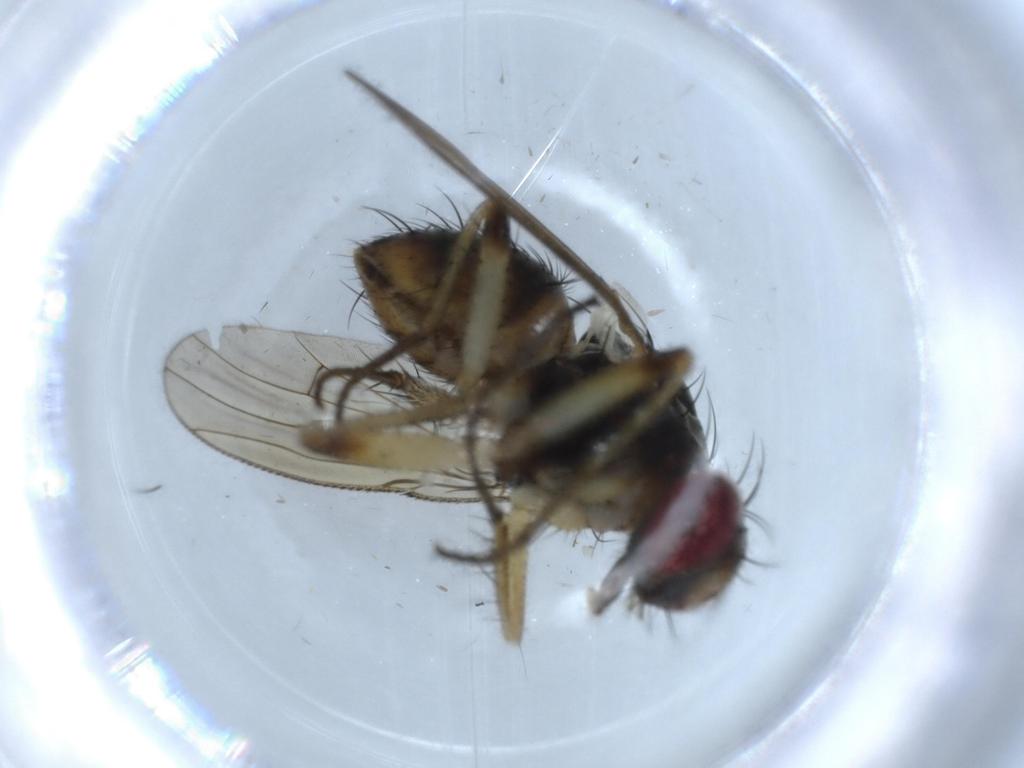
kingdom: Animalia
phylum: Arthropoda
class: Insecta
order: Diptera
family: Muscidae
